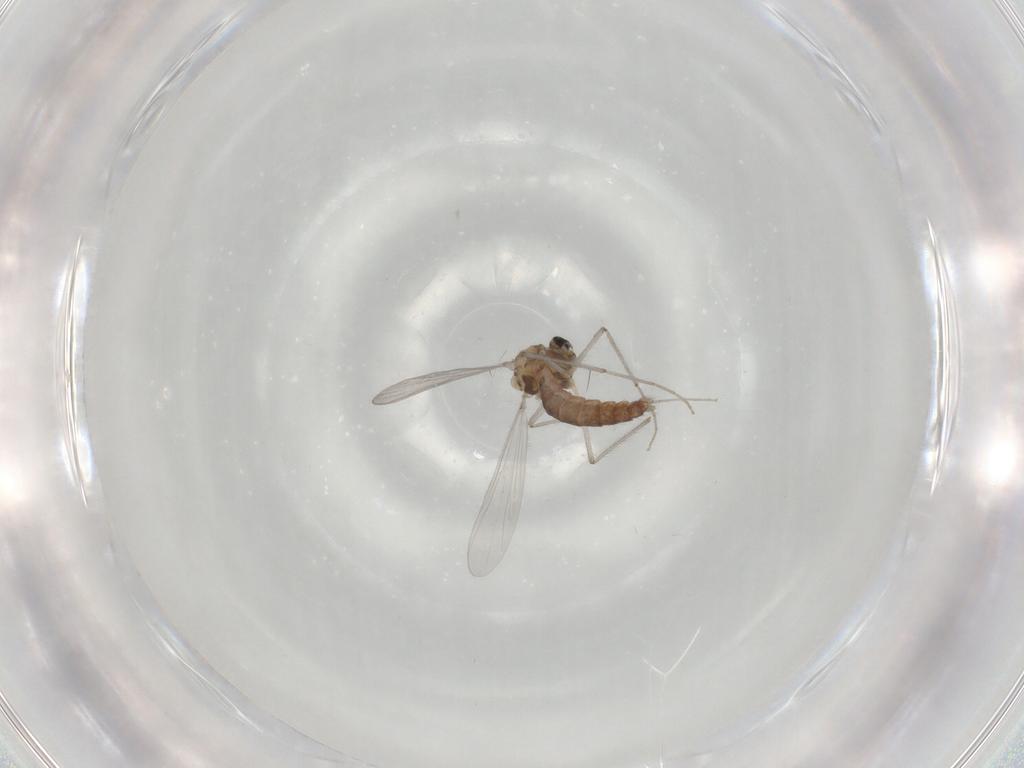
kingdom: Animalia
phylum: Arthropoda
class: Insecta
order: Diptera
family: Chironomidae
